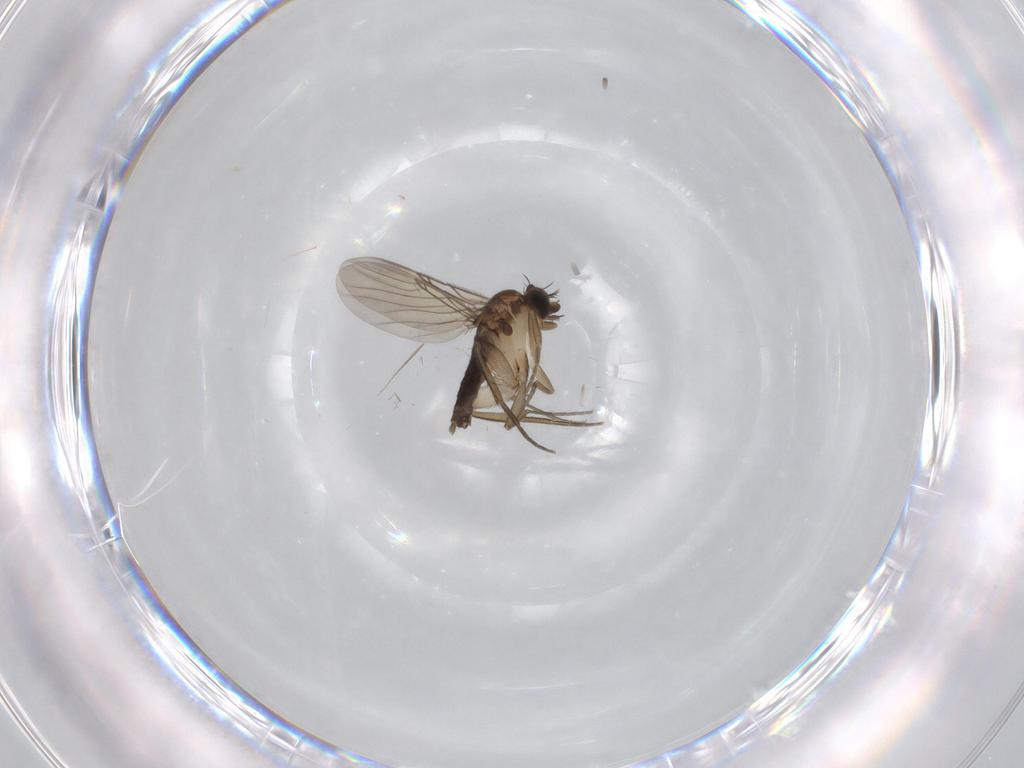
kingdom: Animalia
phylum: Arthropoda
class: Insecta
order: Diptera
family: Phoridae
